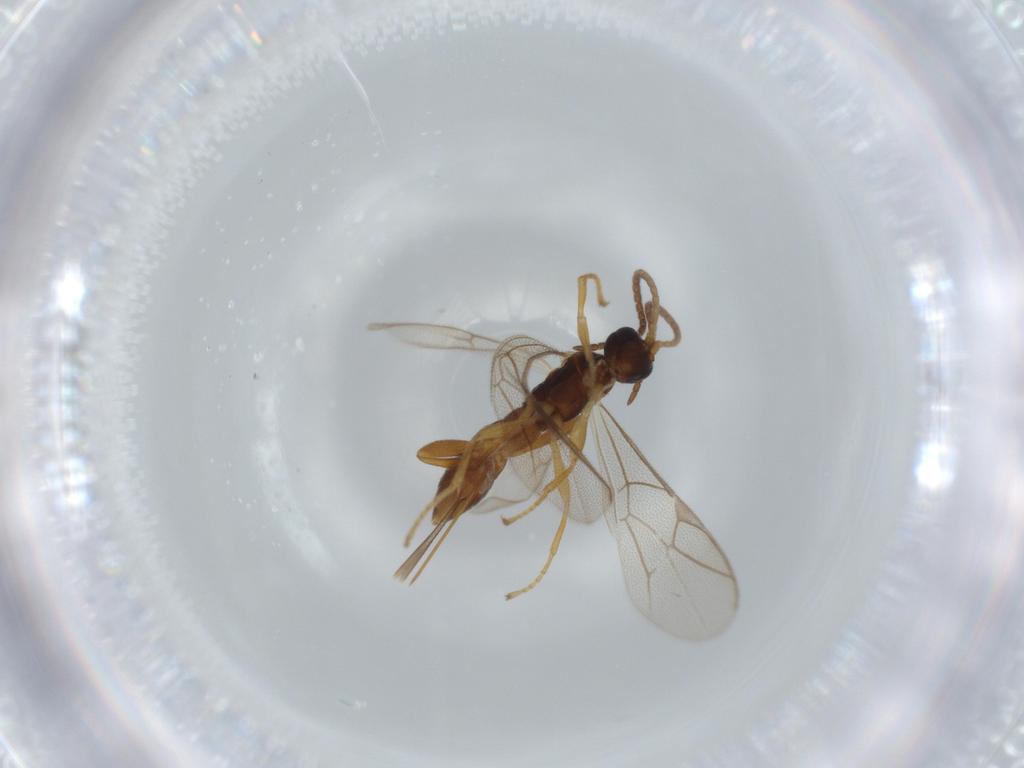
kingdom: Animalia
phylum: Arthropoda
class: Insecta
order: Hymenoptera
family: Ichneumonidae
